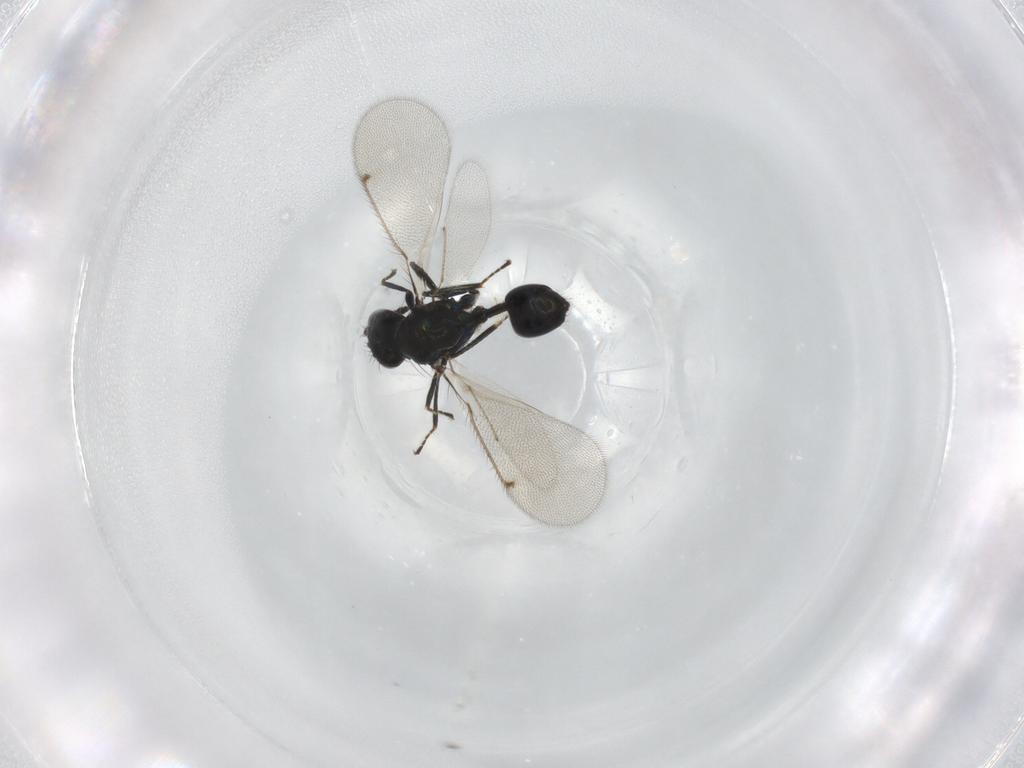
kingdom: Animalia
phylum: Arthropoda
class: Insecta
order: Hymenoptera
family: Eulophidae
